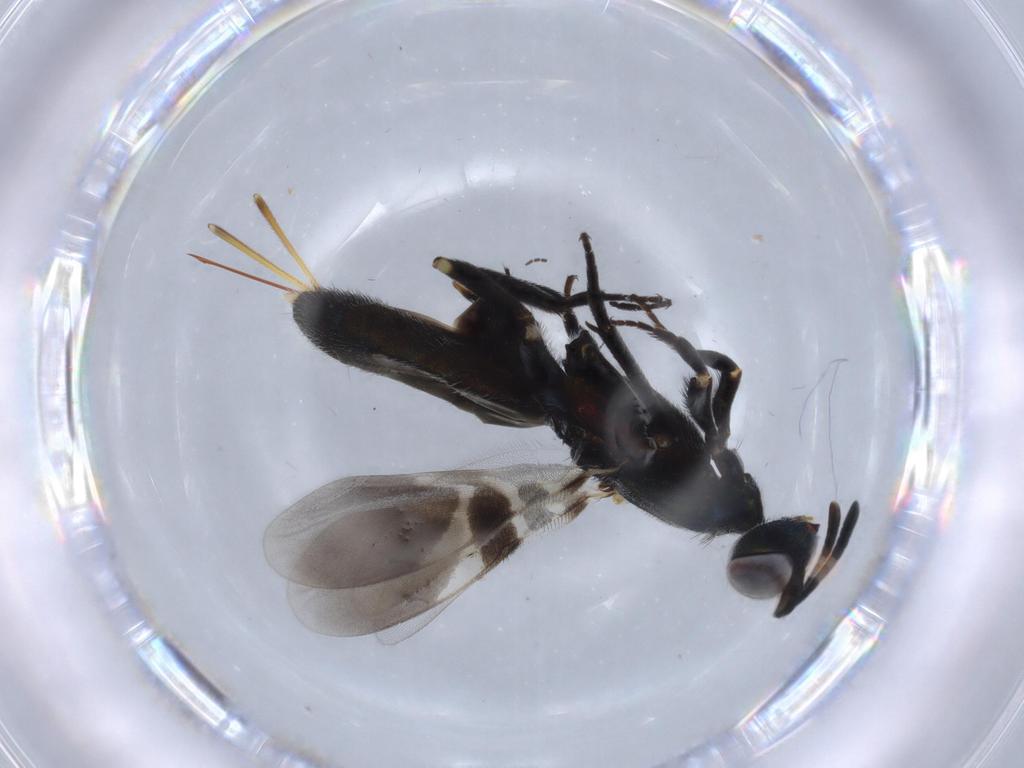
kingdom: Animalia
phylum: Arthropoda
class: Insecta
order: Hymenoptera
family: Eupelmidae
